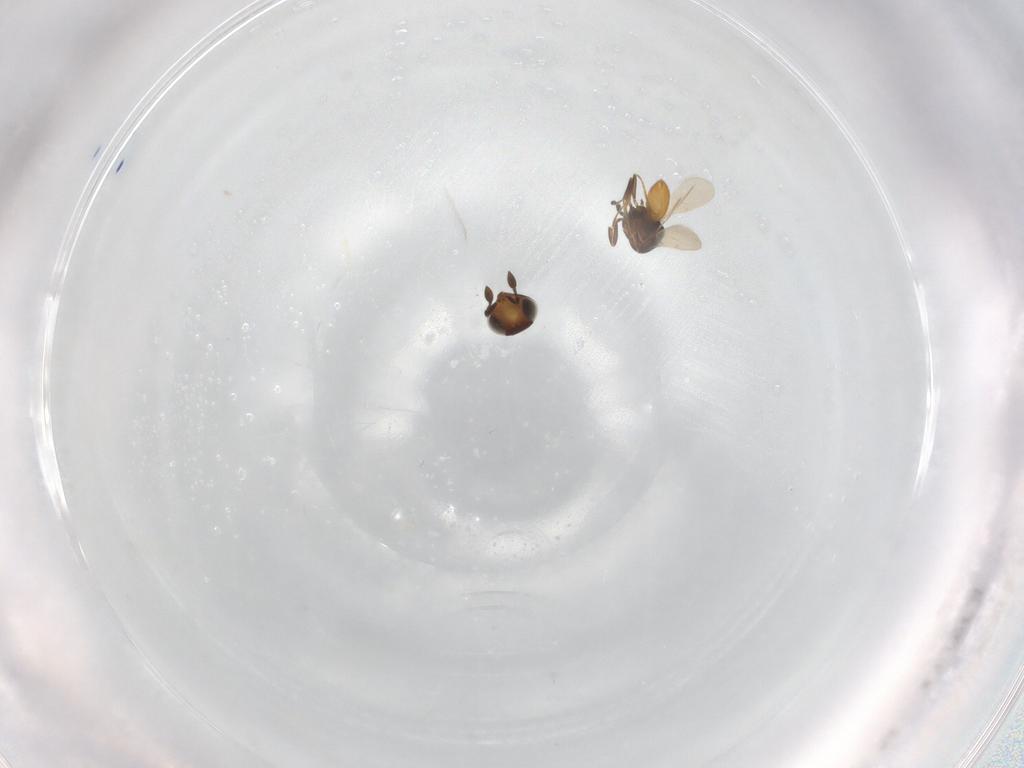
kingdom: Animalia
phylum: Arthropoda
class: Insecta
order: Hymenoptera
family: Scelionidae
